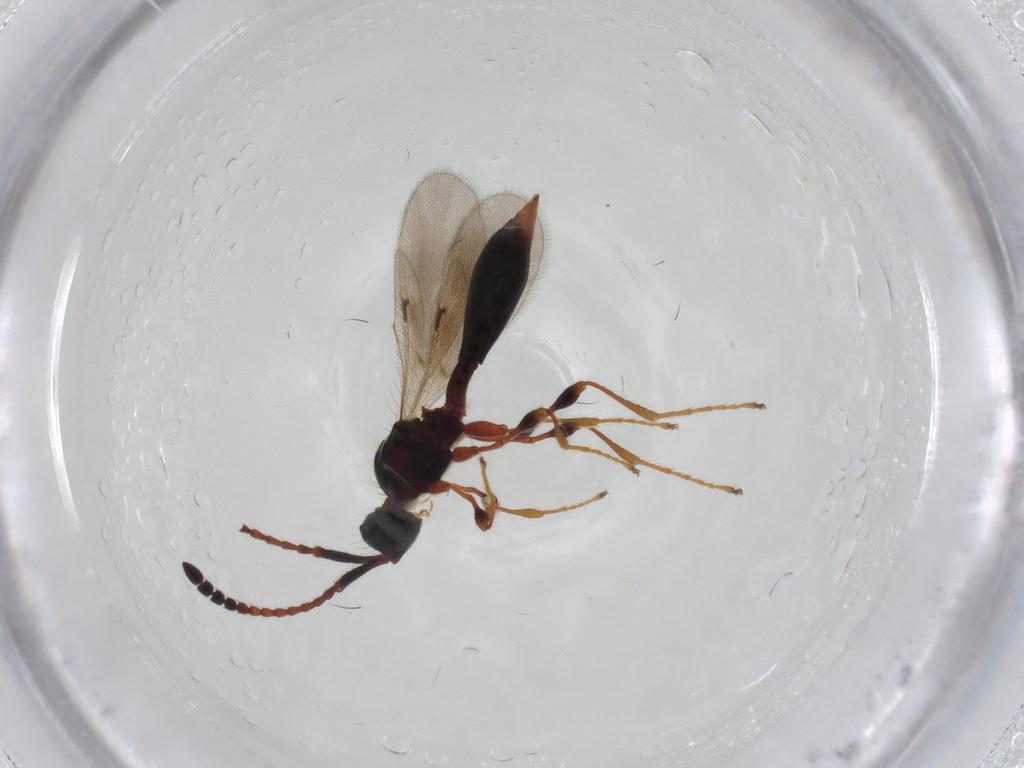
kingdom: Animalia
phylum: Arthropoda
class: Insecta
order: Hymenoptera
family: Diapriidae
